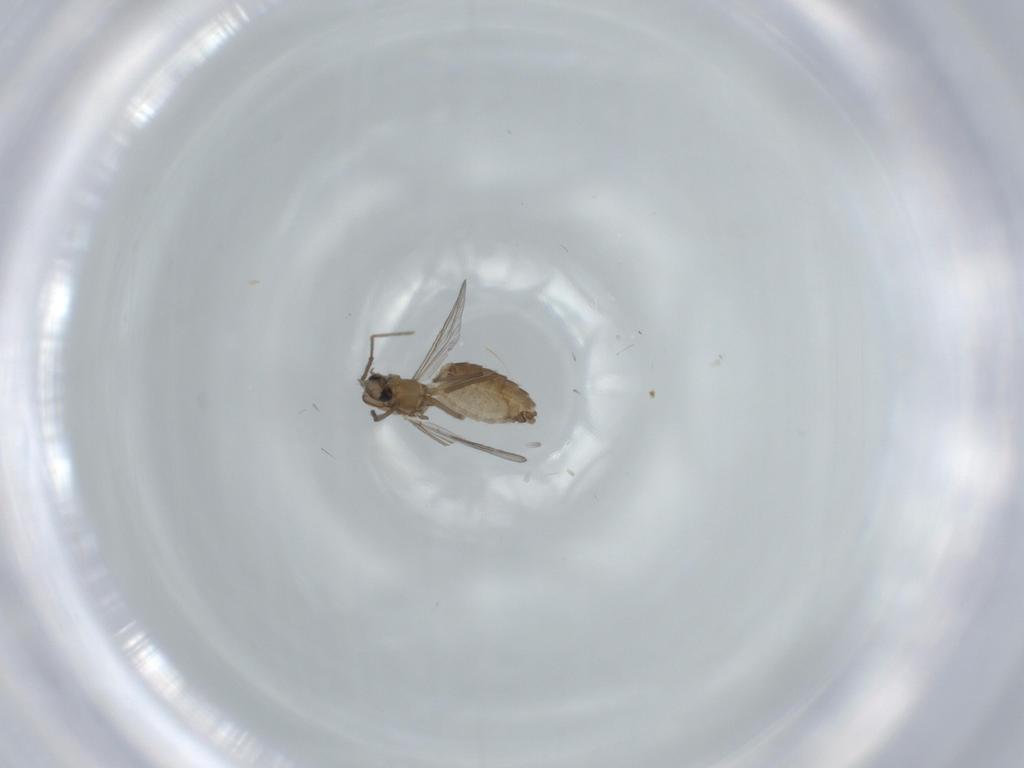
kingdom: Animalia
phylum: Arthropoda
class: Insecta
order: Diptera
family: Chironomidae
